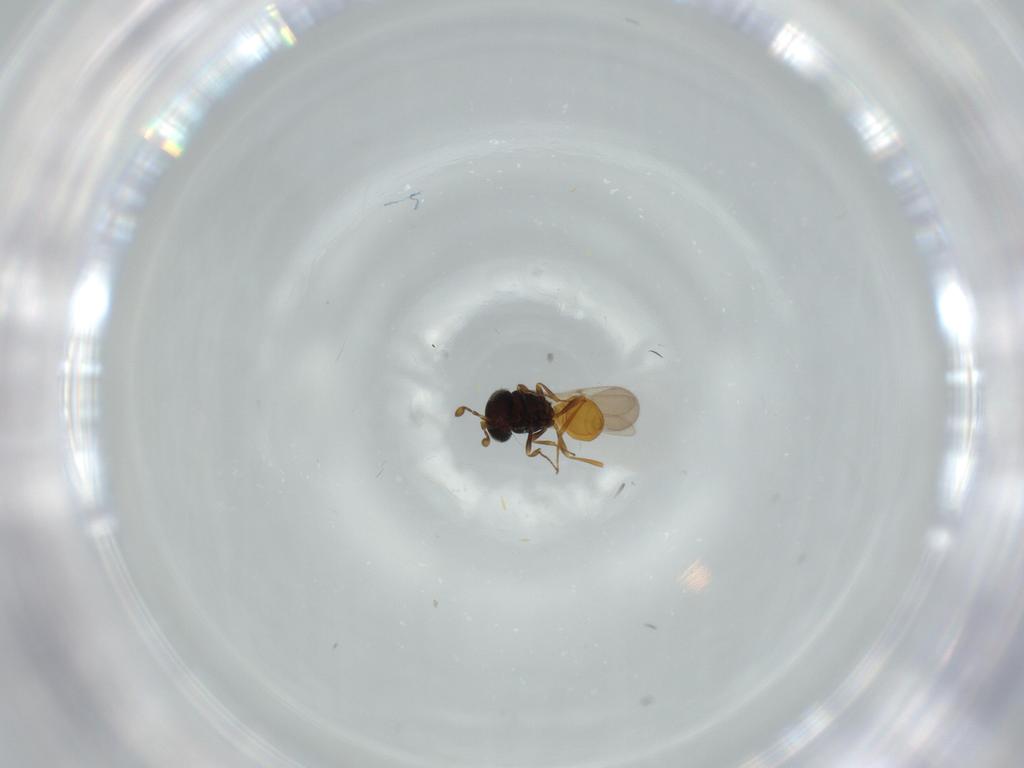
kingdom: Animalia
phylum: Arthropoda
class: Insecta
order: Hymenoptera
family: Scelionidae
